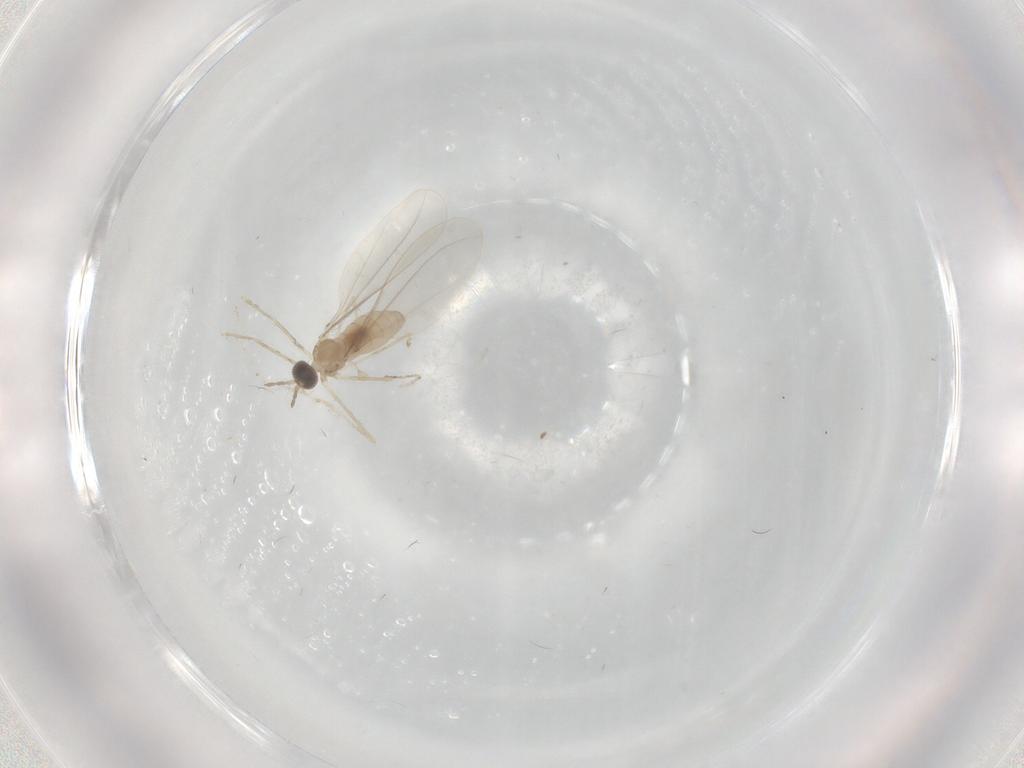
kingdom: Animalia
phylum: Arthropoda
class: Insecta
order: Diptera
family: Cecidomyiidae
